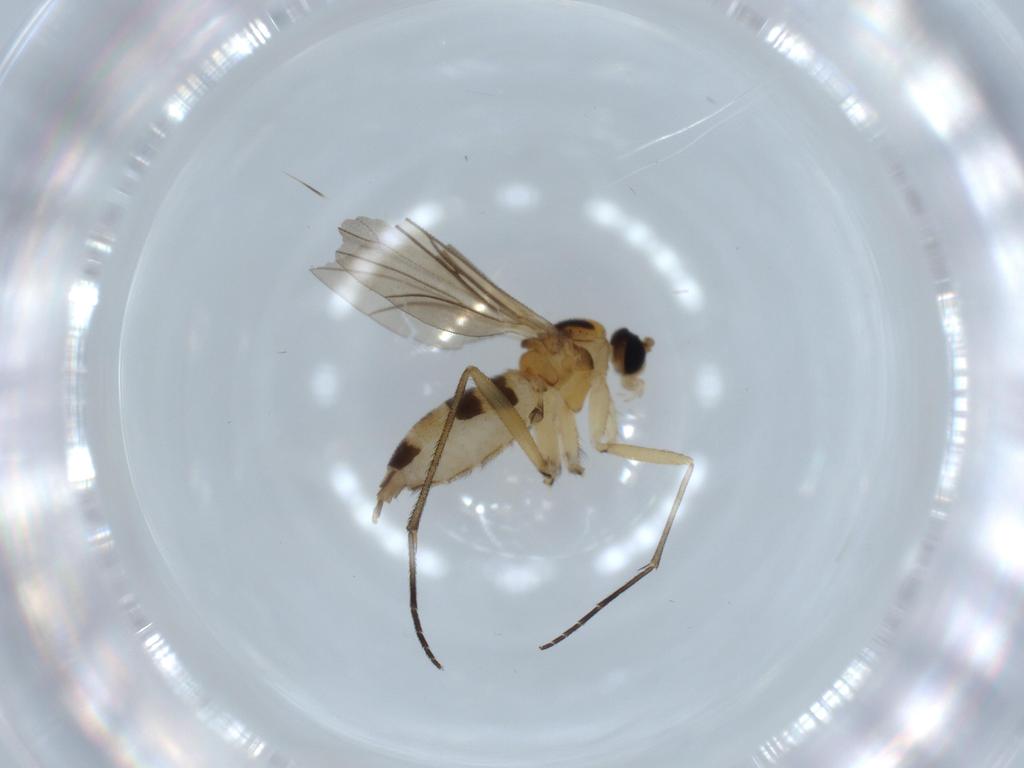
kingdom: Animalia
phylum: Arthropoda
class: Insecta
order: Diptera
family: Sciaridae
